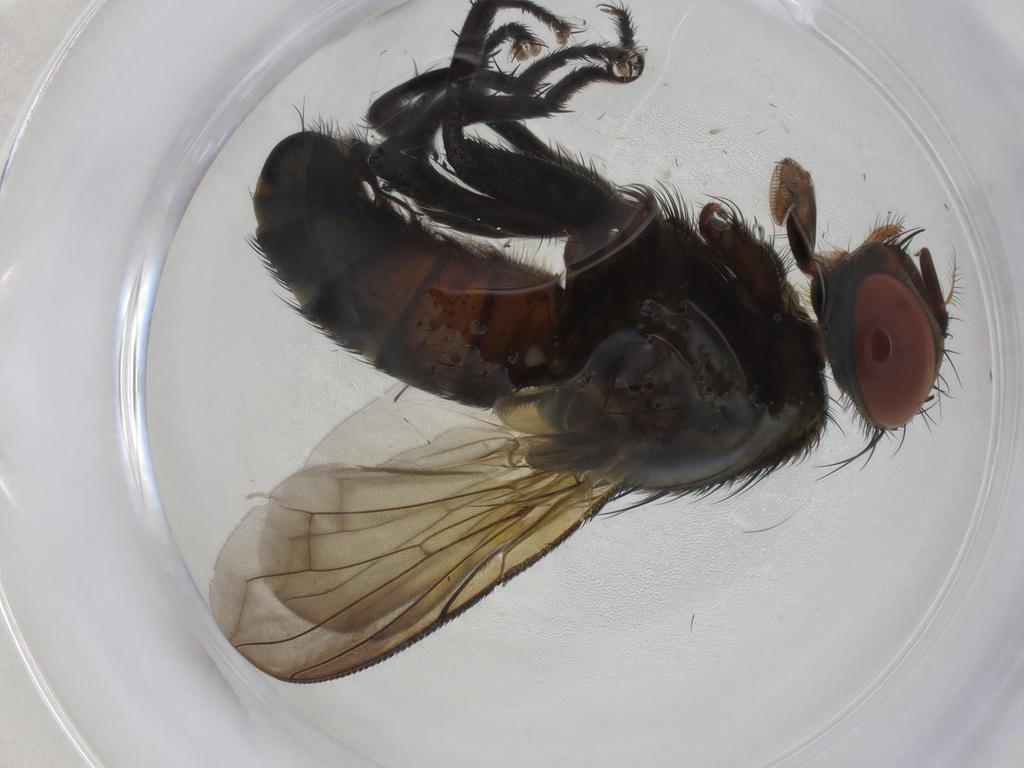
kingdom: Animalia
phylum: Arthropoda
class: Insecta
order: Diptera
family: Sarcophagidae
